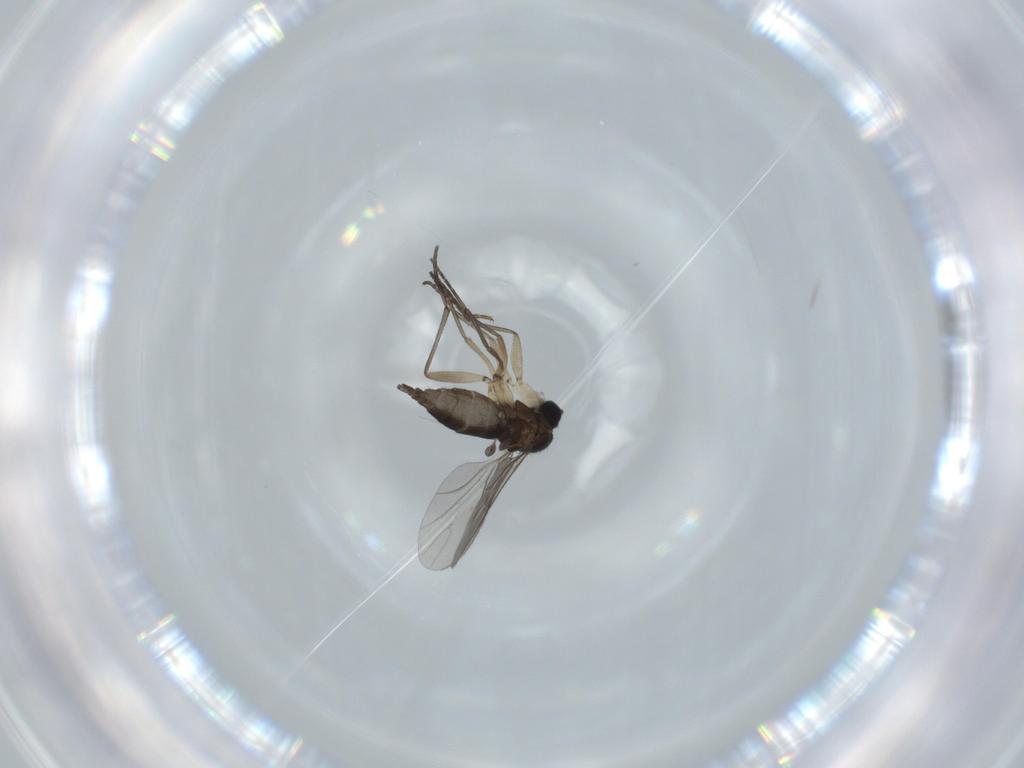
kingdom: Animalia
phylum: Arthropoda
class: Insecta
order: Diptera
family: Sciaridae
